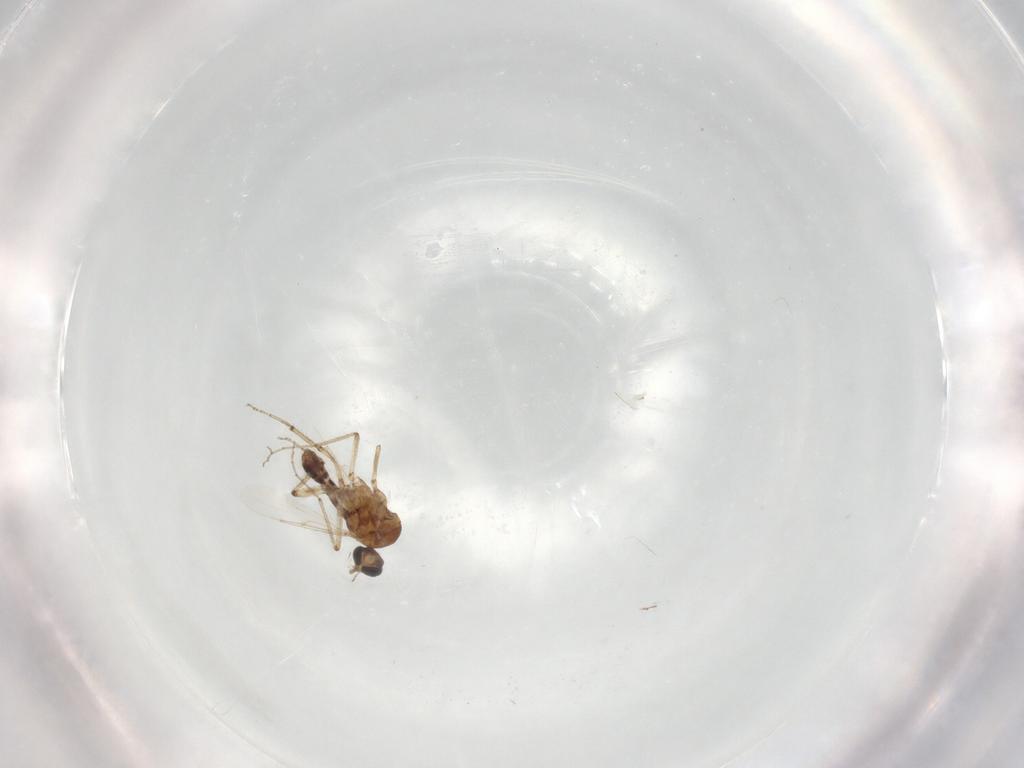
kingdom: Animalia
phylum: Arthropoda
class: Insecta
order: Diptera
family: Ceratopogonidae
